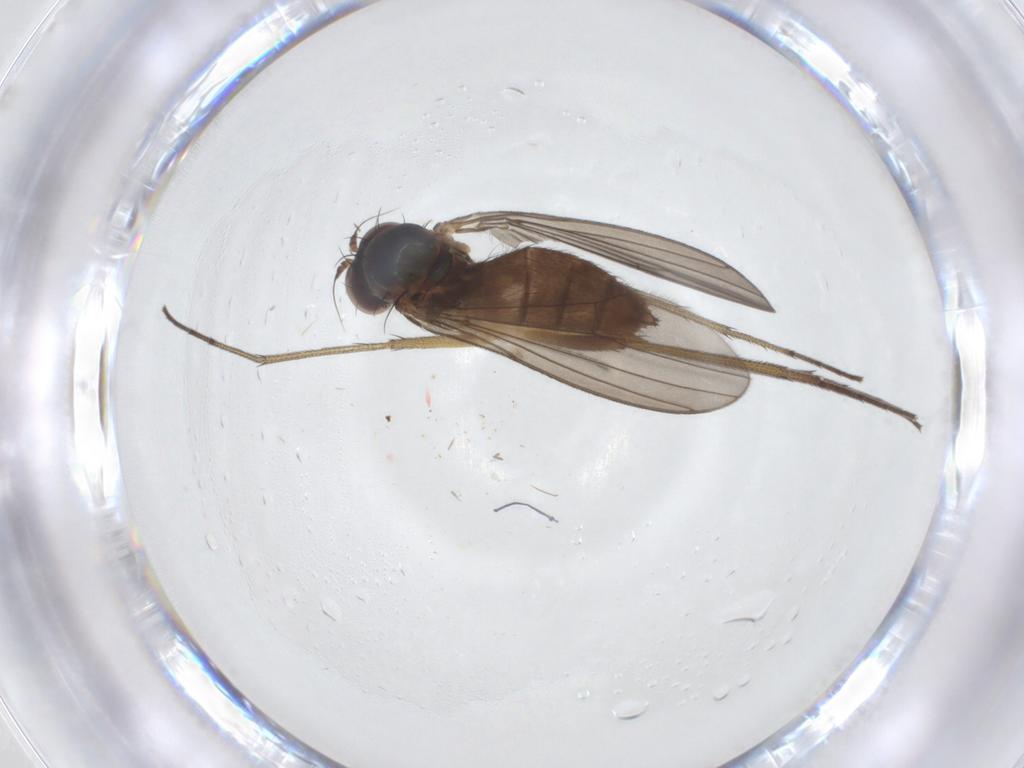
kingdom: Animalia
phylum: Arthropoda
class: Insecta
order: Diptera
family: Dolichopodidae
